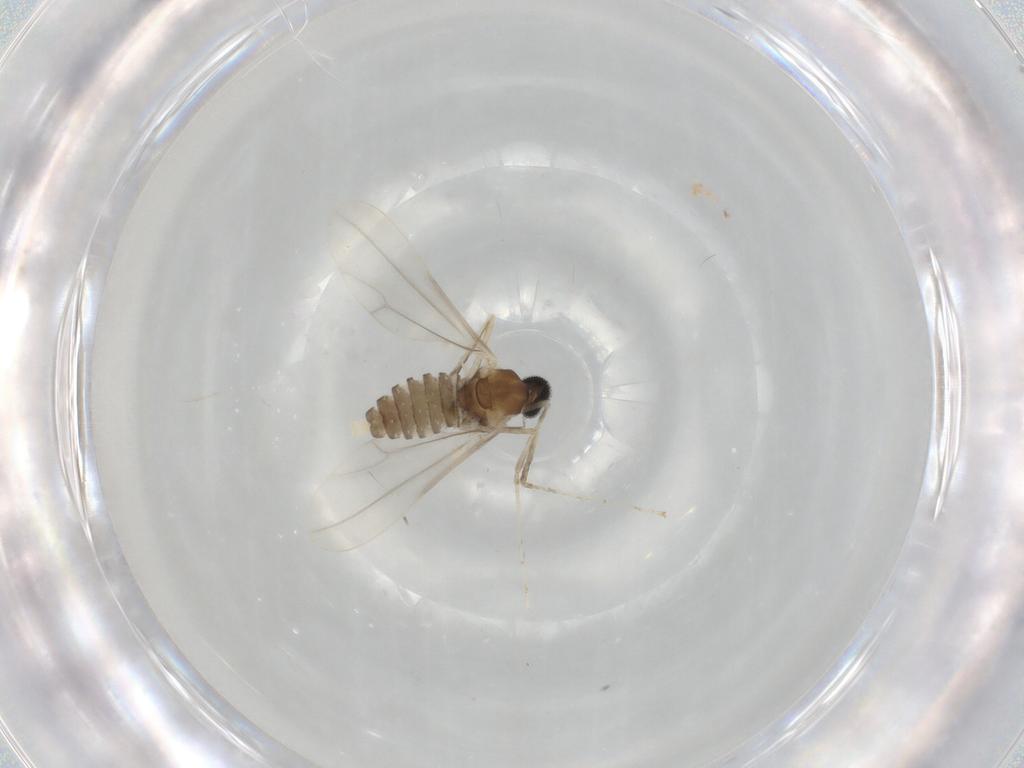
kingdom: Animalia
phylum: Arthropoda
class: Insecta
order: Diptera
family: Cecidomyiidae
